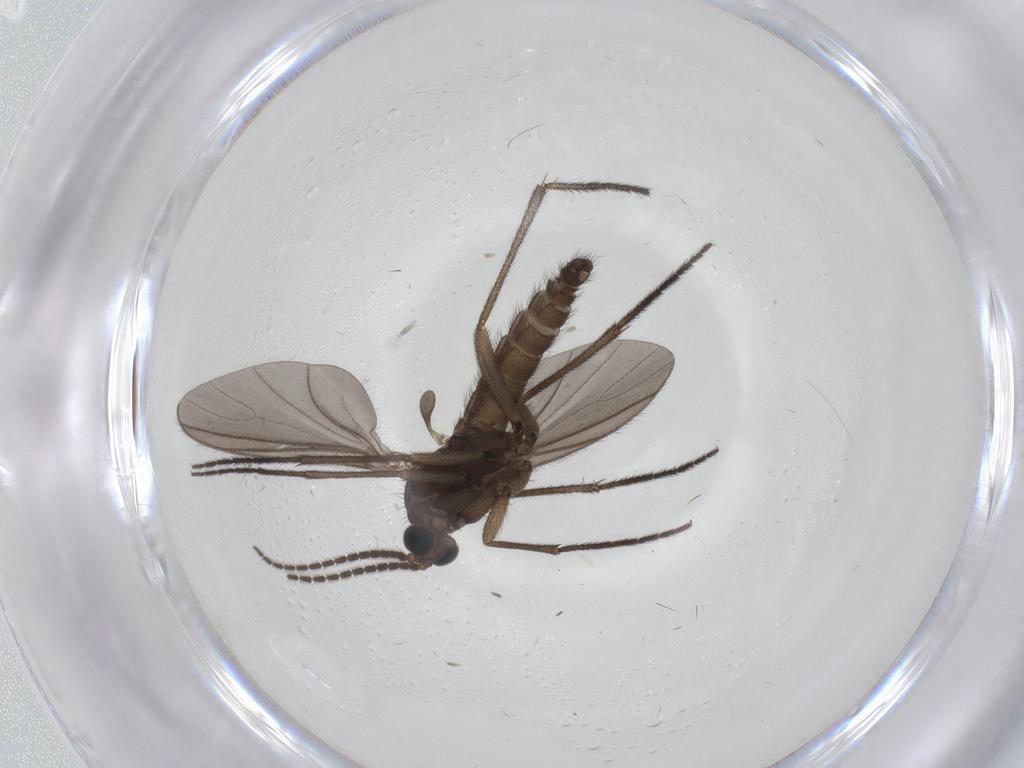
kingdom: Animalia
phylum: Arthropoda
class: Insecta
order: Diptera
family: Sciaridae
